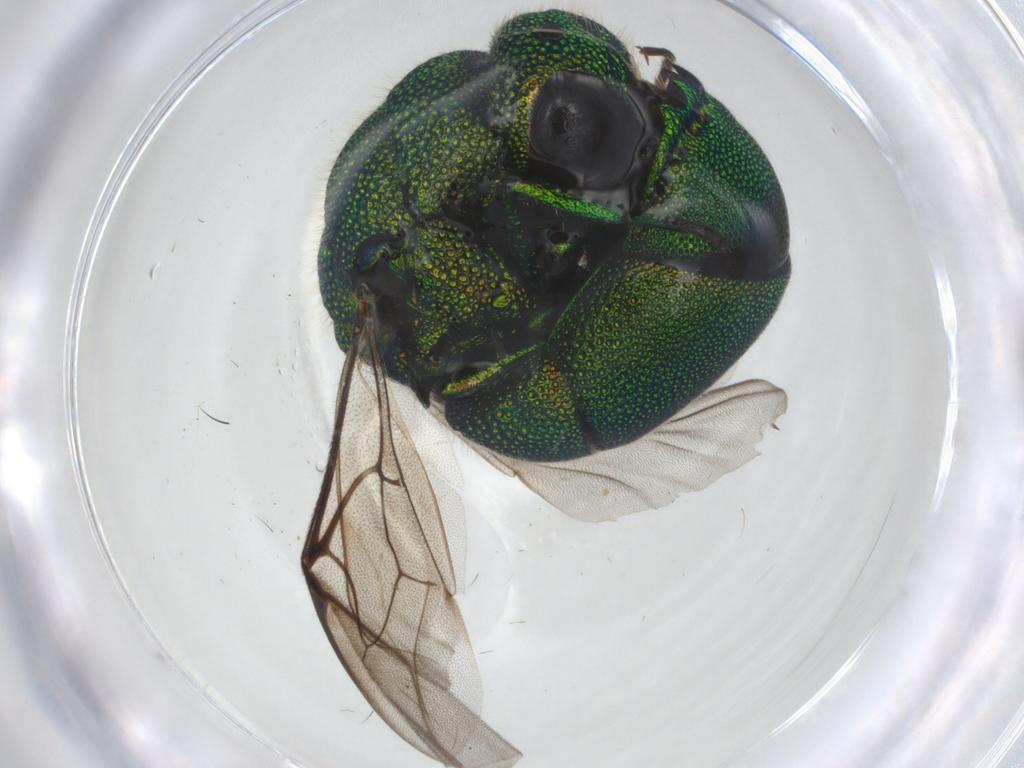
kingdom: Animalia
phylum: Arthropoda
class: Insecta
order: Hymenoptera
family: Chrysididae
